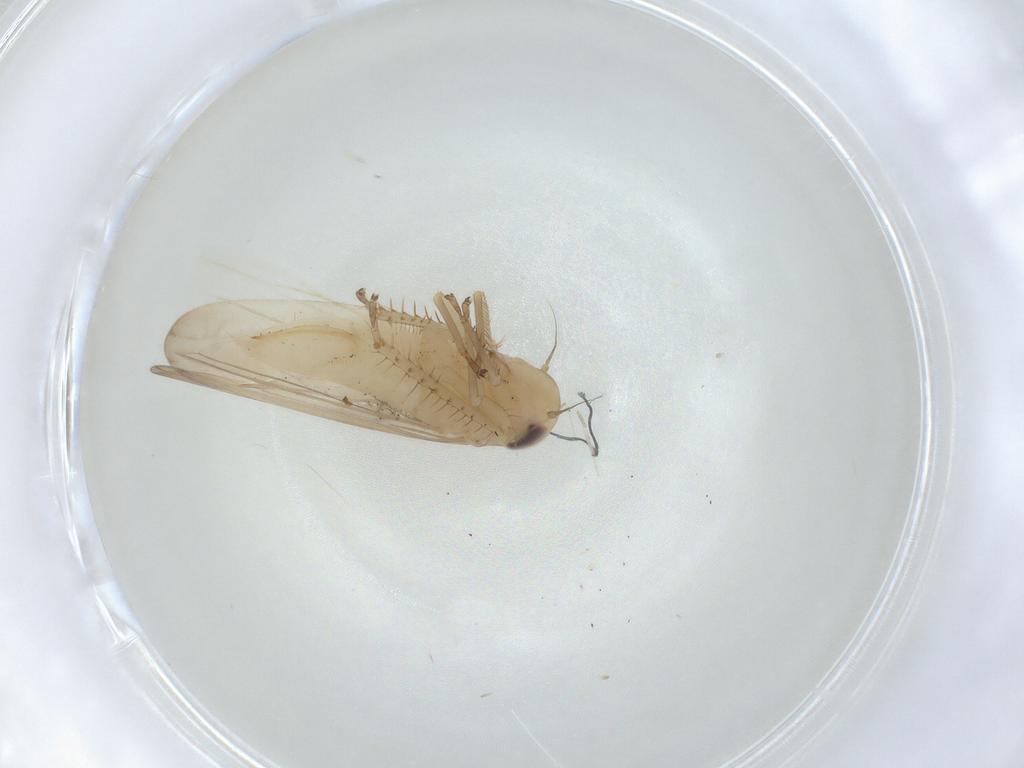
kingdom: Animalia
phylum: Arthropoda
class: Insecta
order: Hemiptera
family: Cicadellidae
